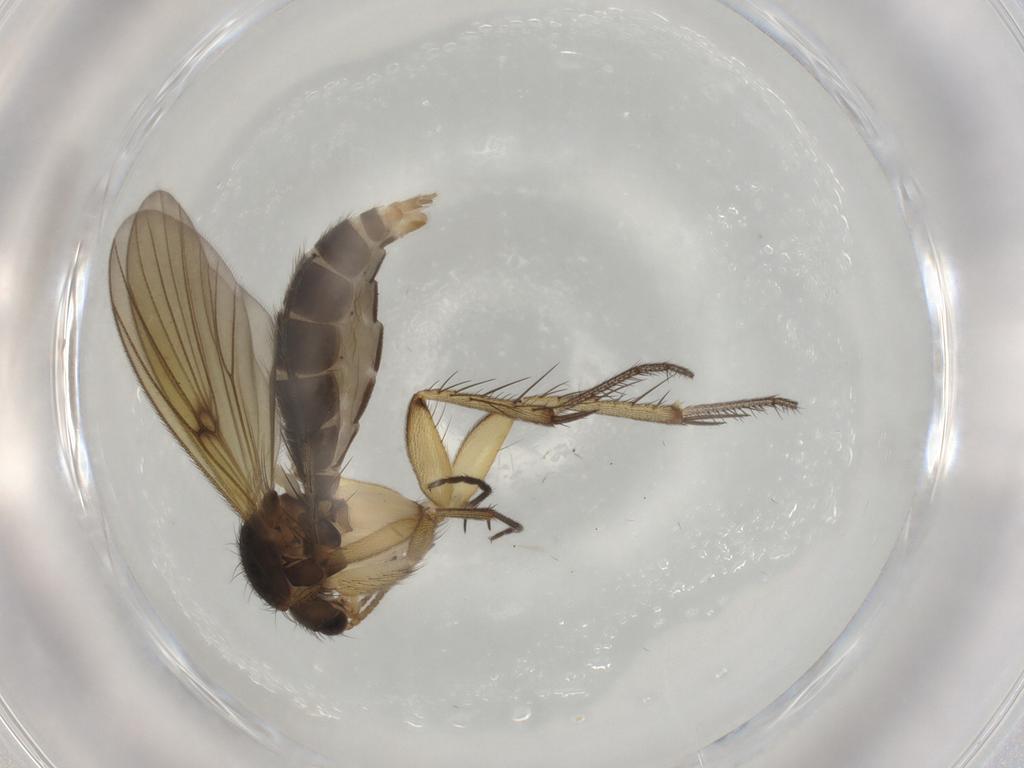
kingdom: Animalia
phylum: Arthropoda
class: Insecta
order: Diptera
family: Mycetophilidae
